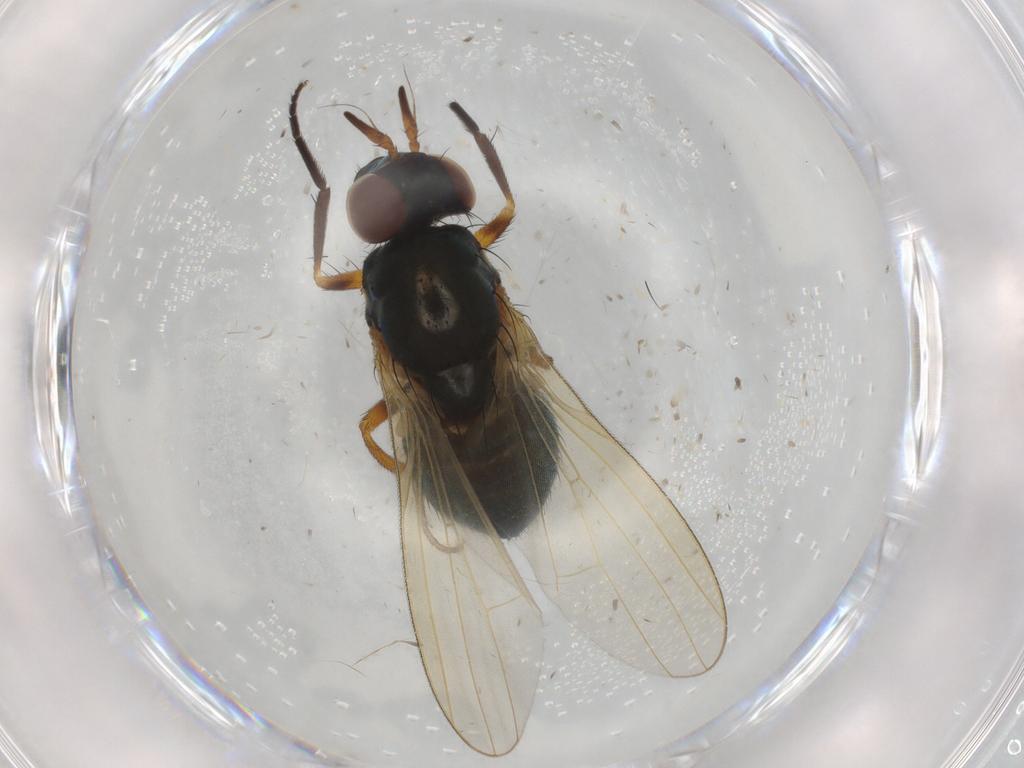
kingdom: Animalia
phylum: Arthropoda
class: Insecta
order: Diptera
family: Lauxaniidae
